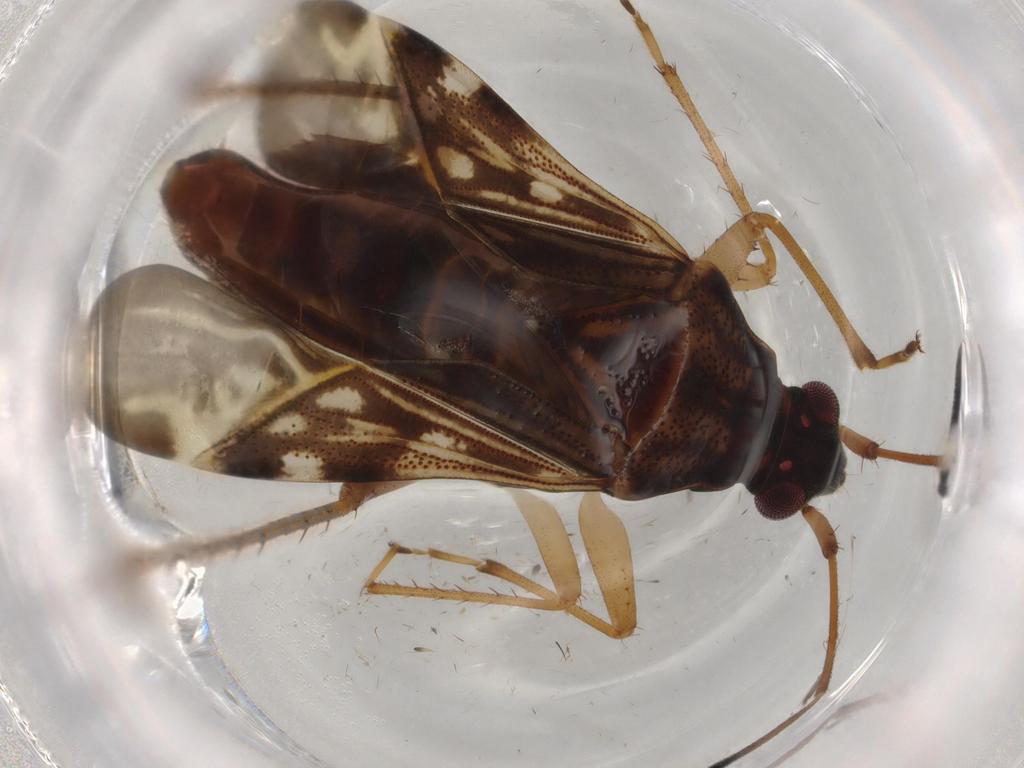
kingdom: Animalia
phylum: Arthropoda
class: Insecta
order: Hemiptera
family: Rhyparochromidae
